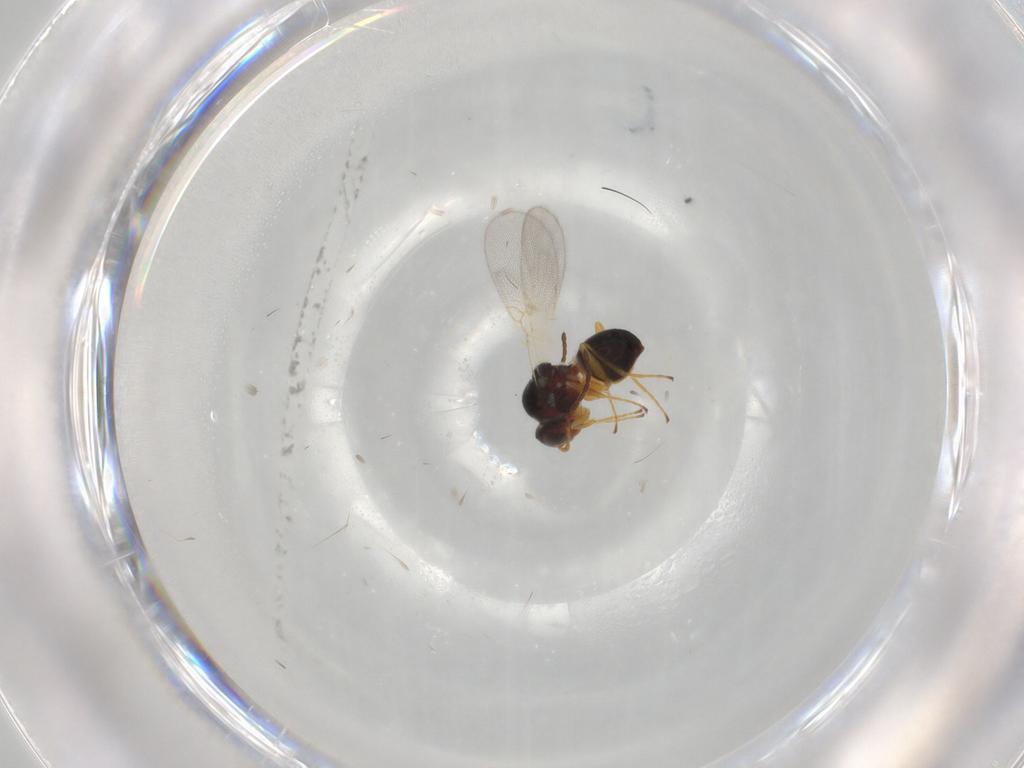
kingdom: Animalia
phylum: Arthropoda
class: Insecta
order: Hymenoptera
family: Figitidae
